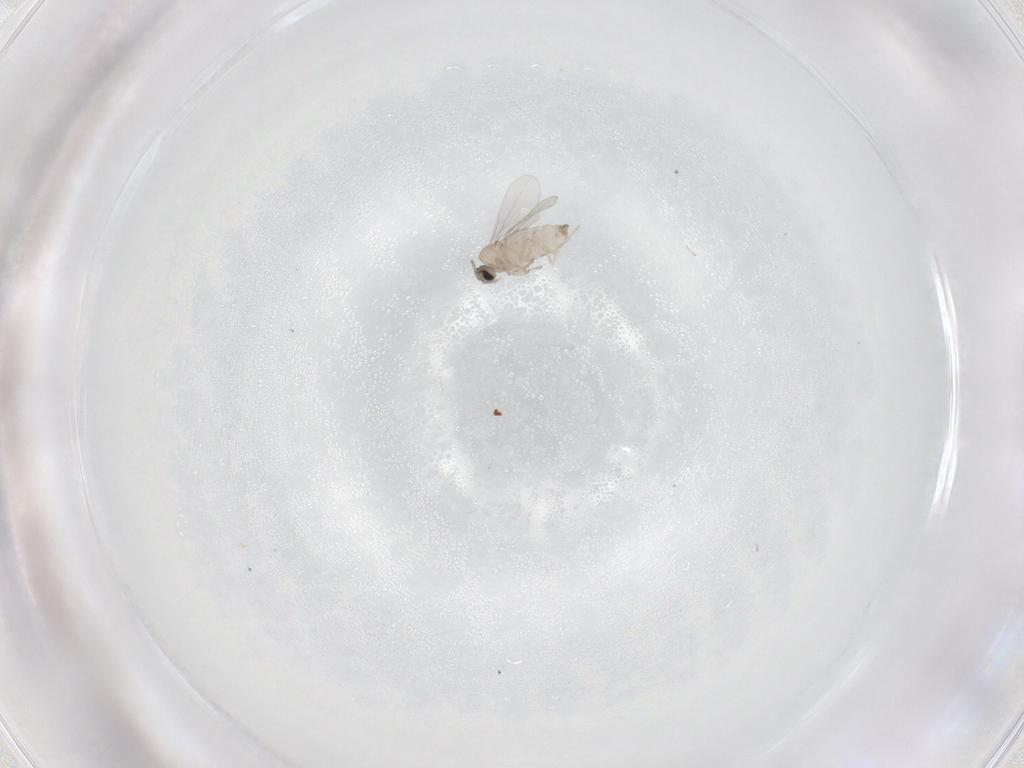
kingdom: Animalia
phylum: Arthropoda
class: Insecta
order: Diptera
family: Cecidomyiidae
